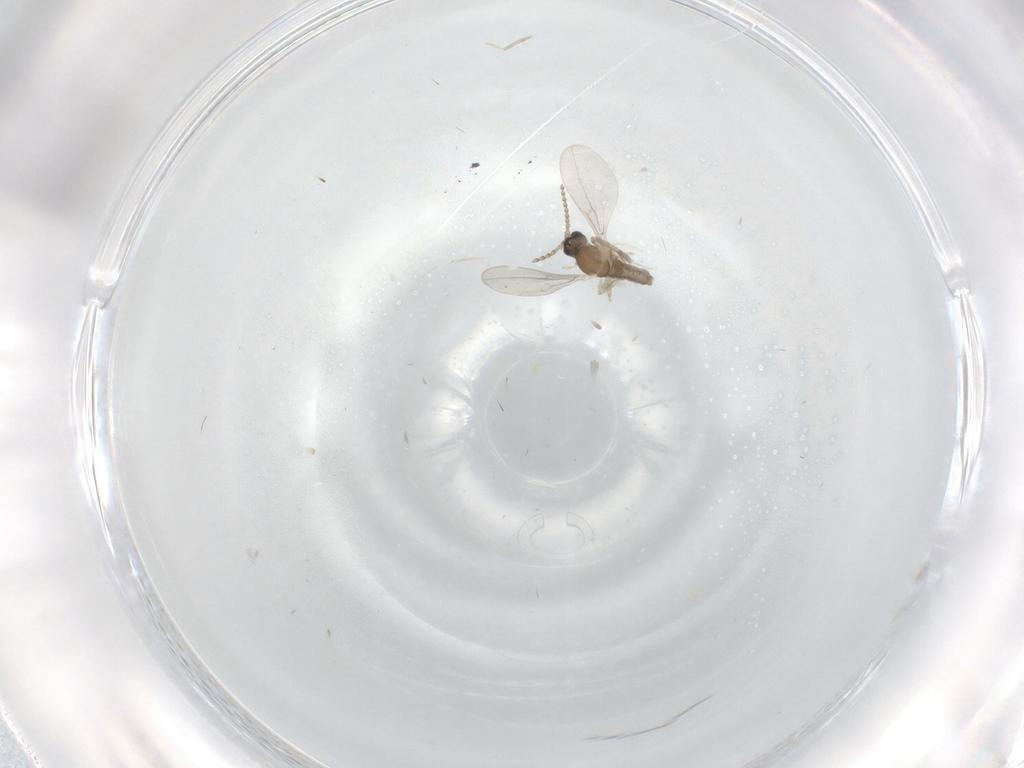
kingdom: Animalia
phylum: Arthropoda
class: Insecta
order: Diptera
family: Cecidomyiidae
